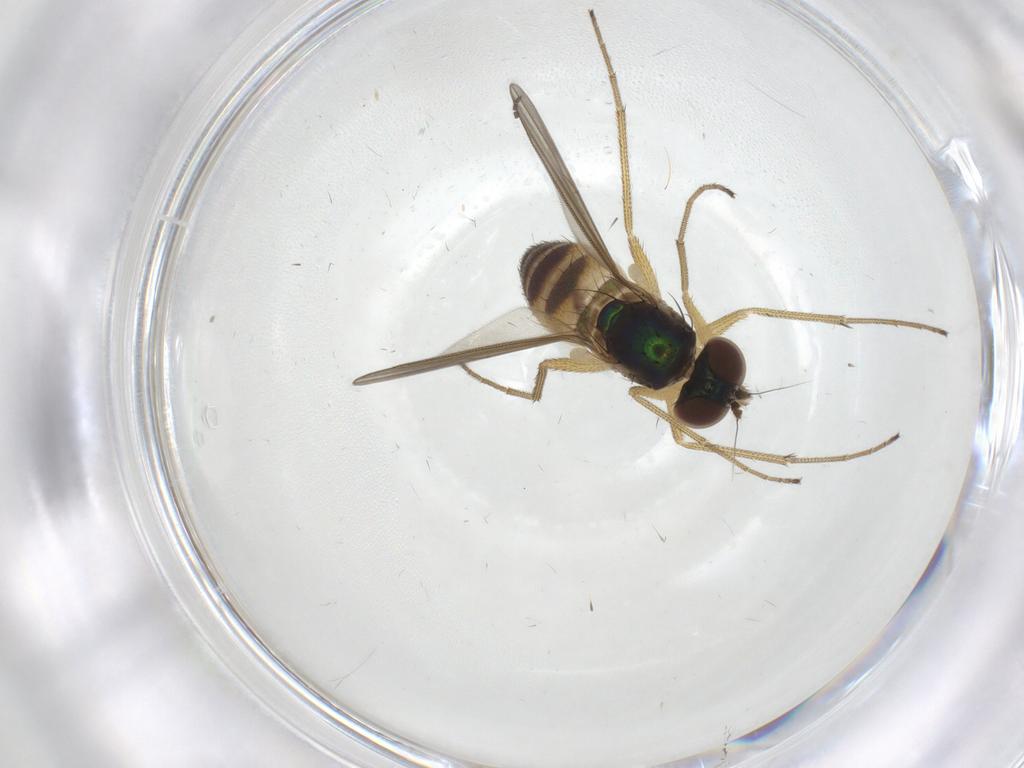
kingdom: Animalia
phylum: Arthropoda
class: Insecta
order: Diptera
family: Dolichopodidae
